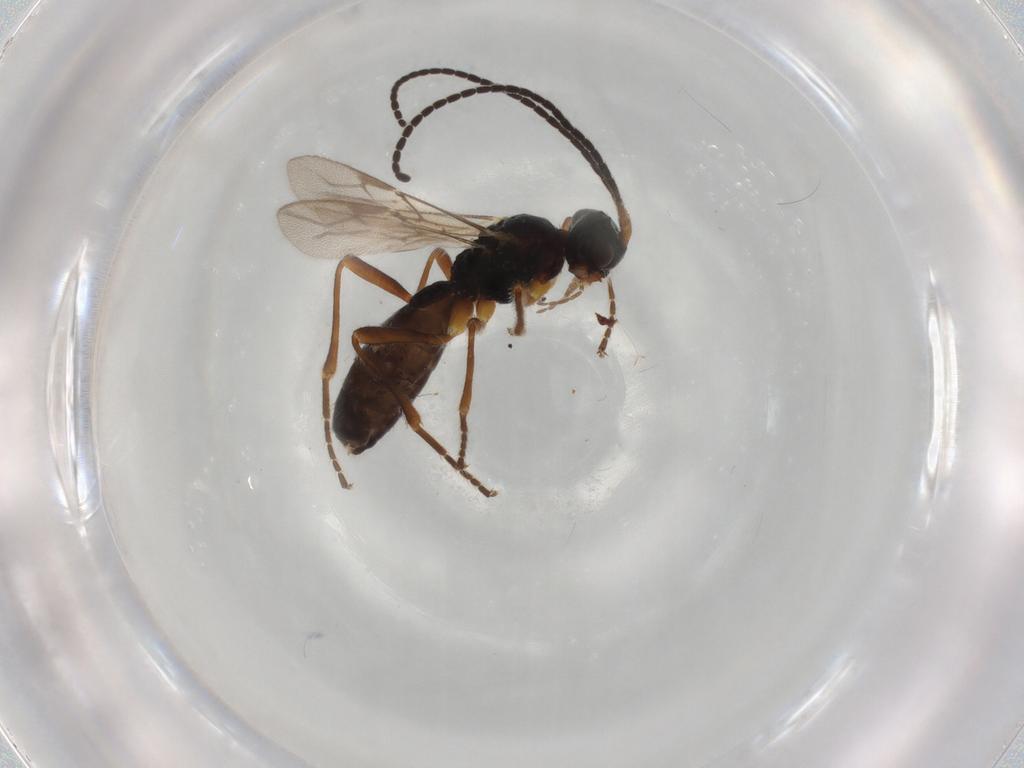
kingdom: Animalia
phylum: Arthropoda
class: Insecta
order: Hymenoptera
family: Ichneumonidae
